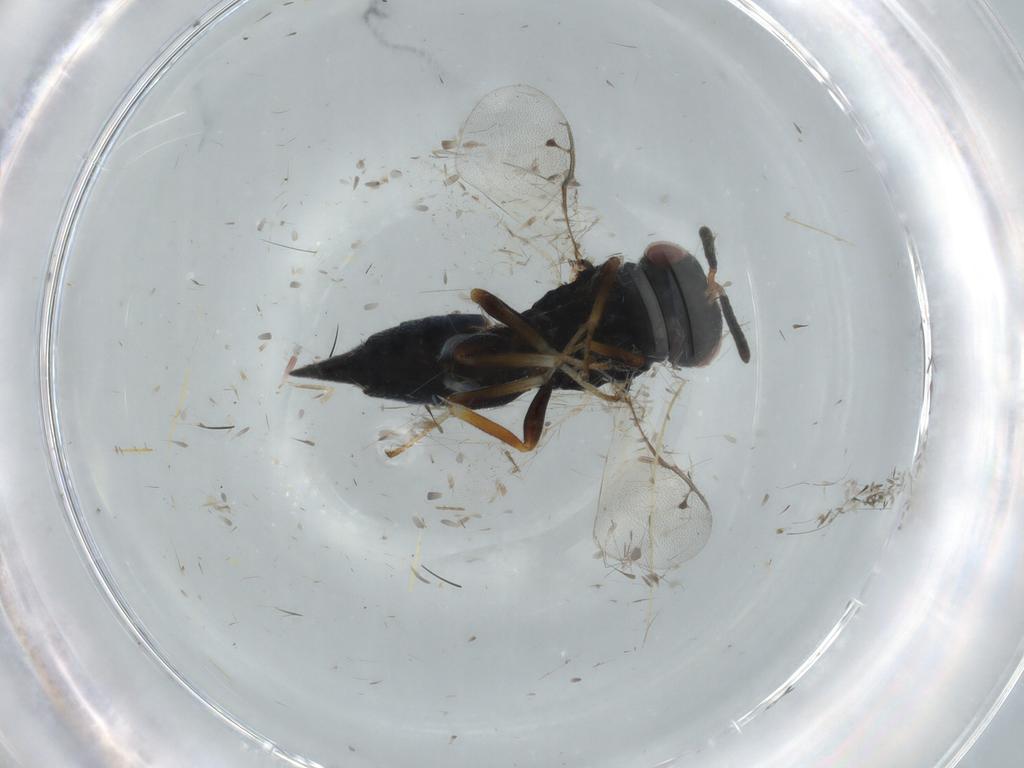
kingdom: Animalia
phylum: Arthropoda
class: Insecta
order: Hymenoptera
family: Pteromalidae
